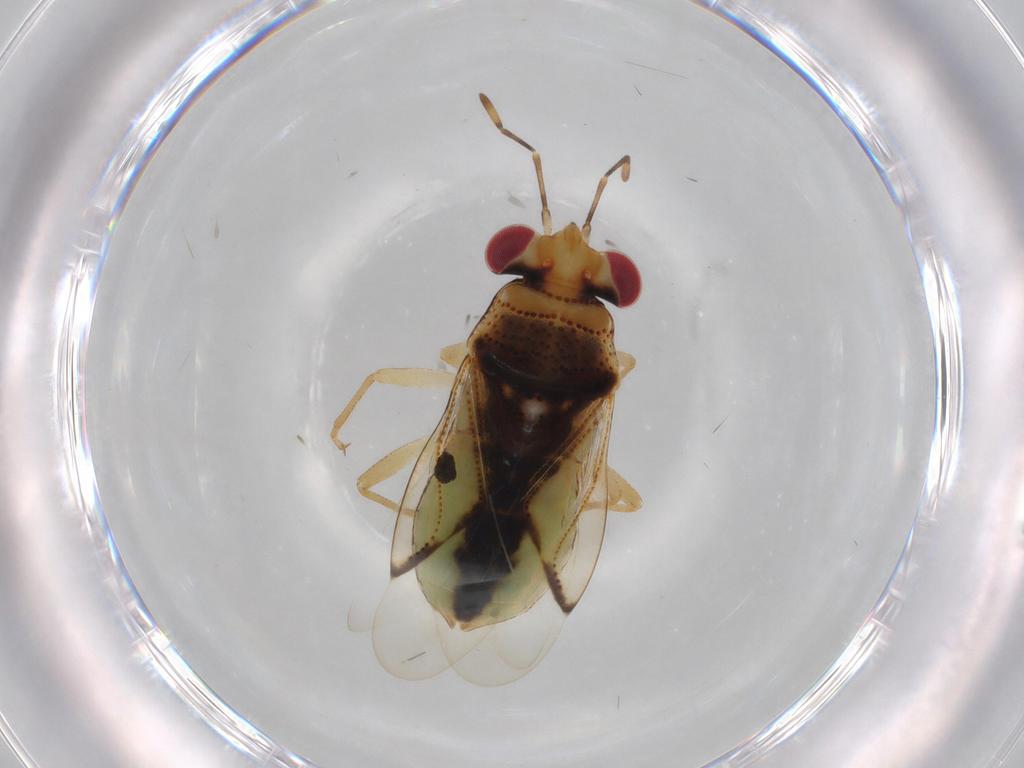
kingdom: Animalia
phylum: Arthropoda
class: Insecta
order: Hemiptera
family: Geocoridae
